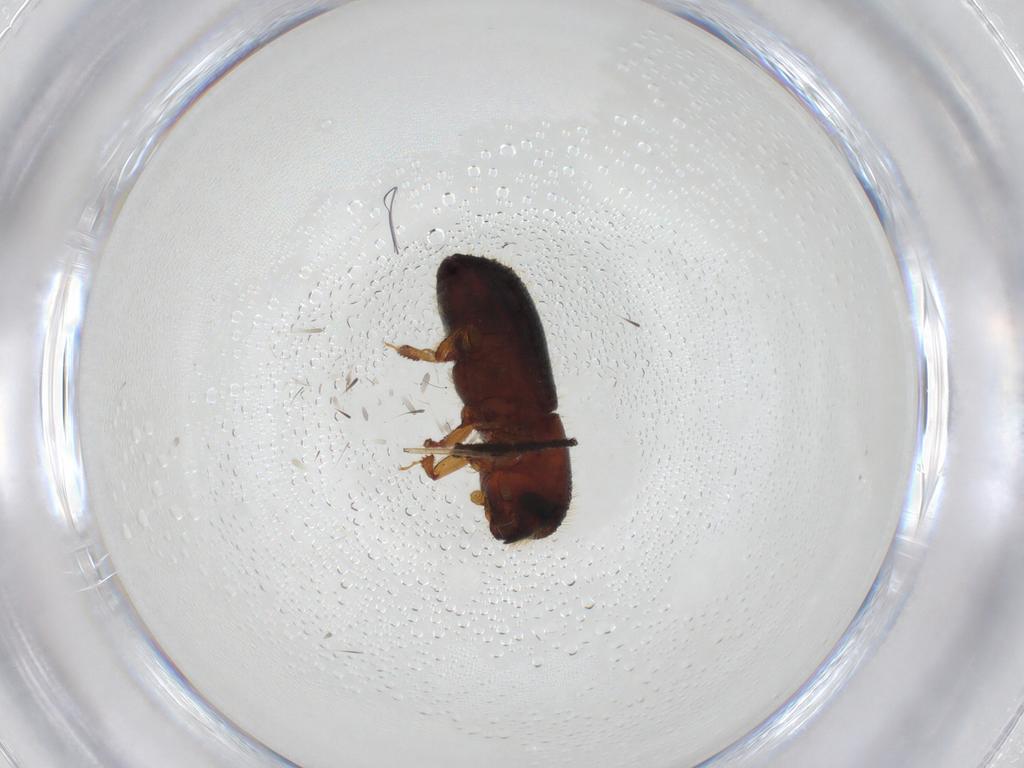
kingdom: Animalia
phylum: Arthropoda
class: Insecta
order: Coleoptera
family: Curculionidae
